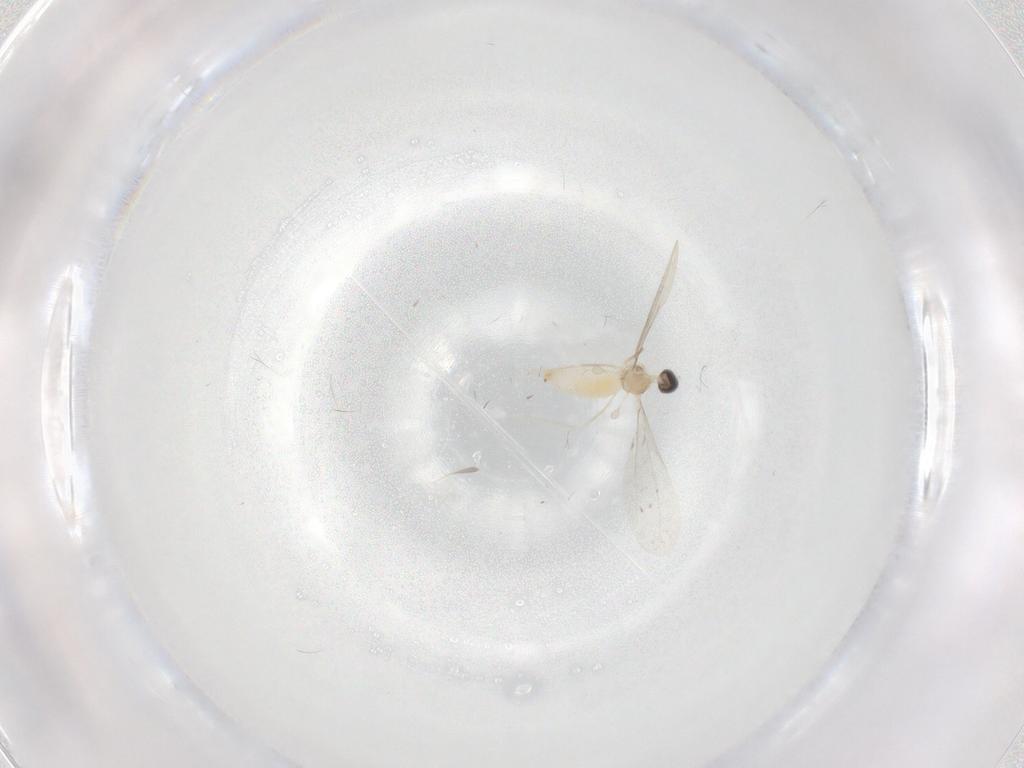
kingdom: Animalia
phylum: Arthropoda
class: Insecta
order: Diptera
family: Cecidomyiidae
